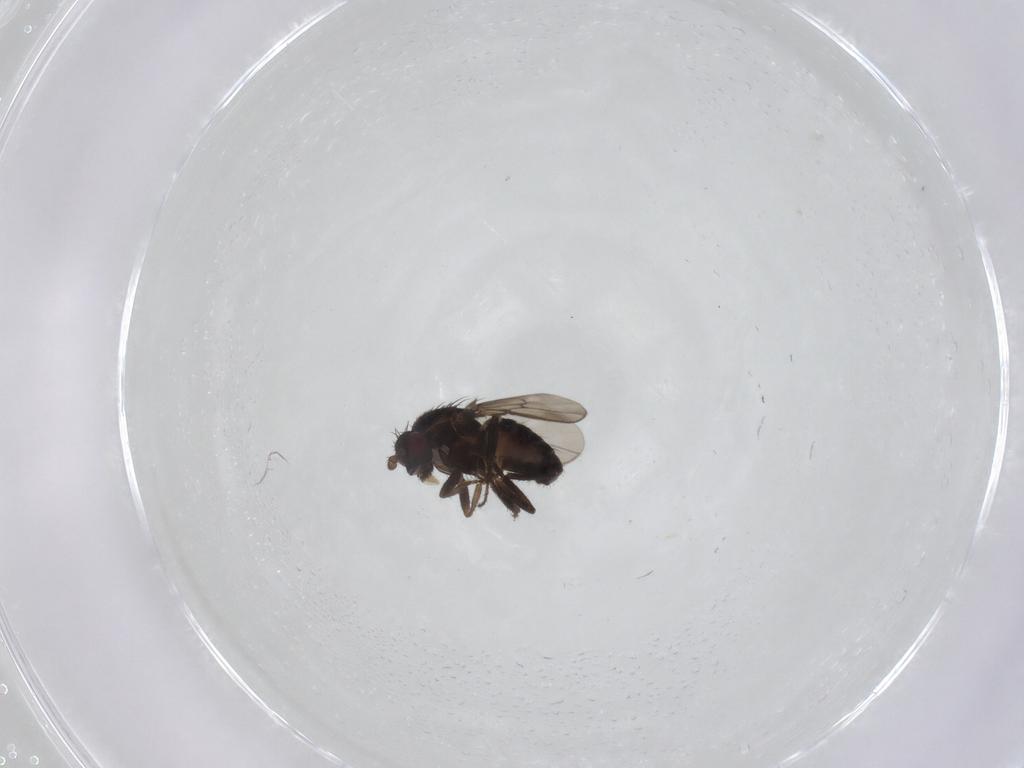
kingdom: Animalia
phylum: Arthropoda
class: Insecta
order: Diptera
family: Sphaeroceridae
